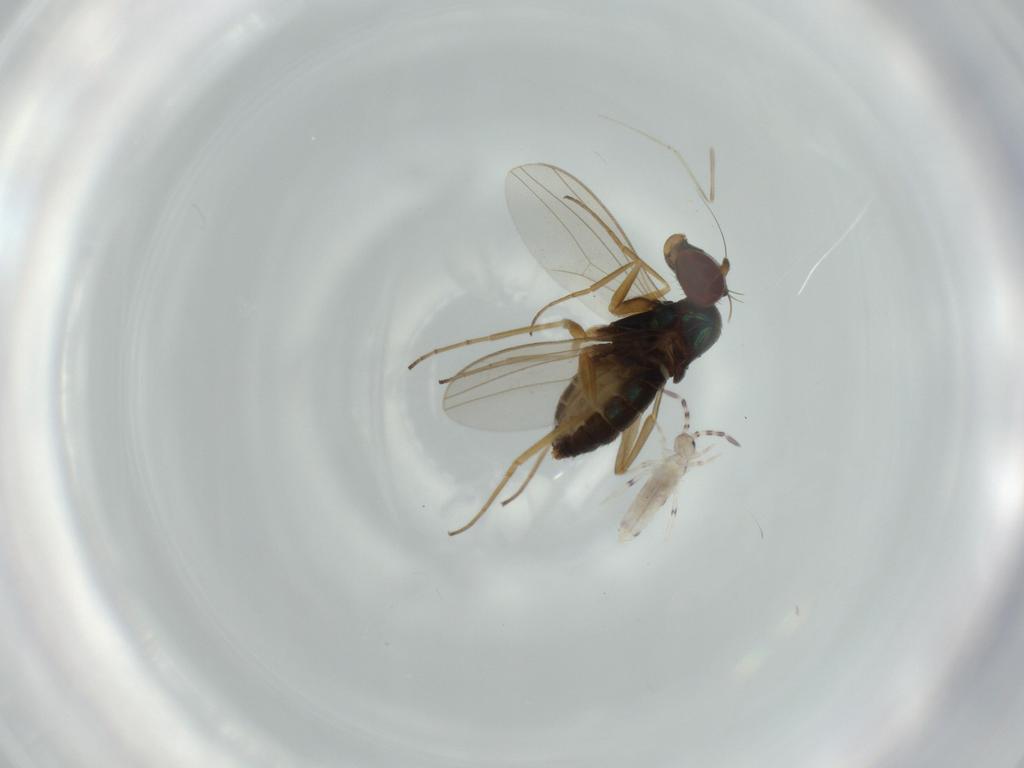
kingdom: Animalia
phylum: Arthropoda
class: Insecta
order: Diptera
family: Dolichopodidae
